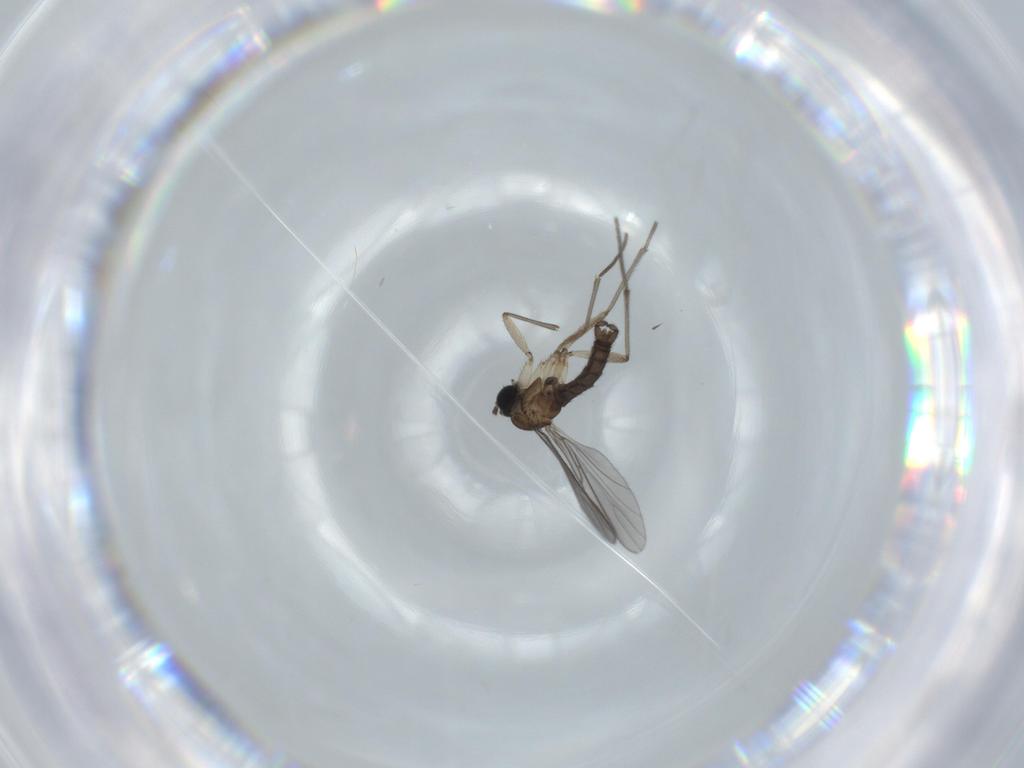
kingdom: Animalia
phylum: Arthropoda
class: Insecta
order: Diptera
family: Sciaridae
